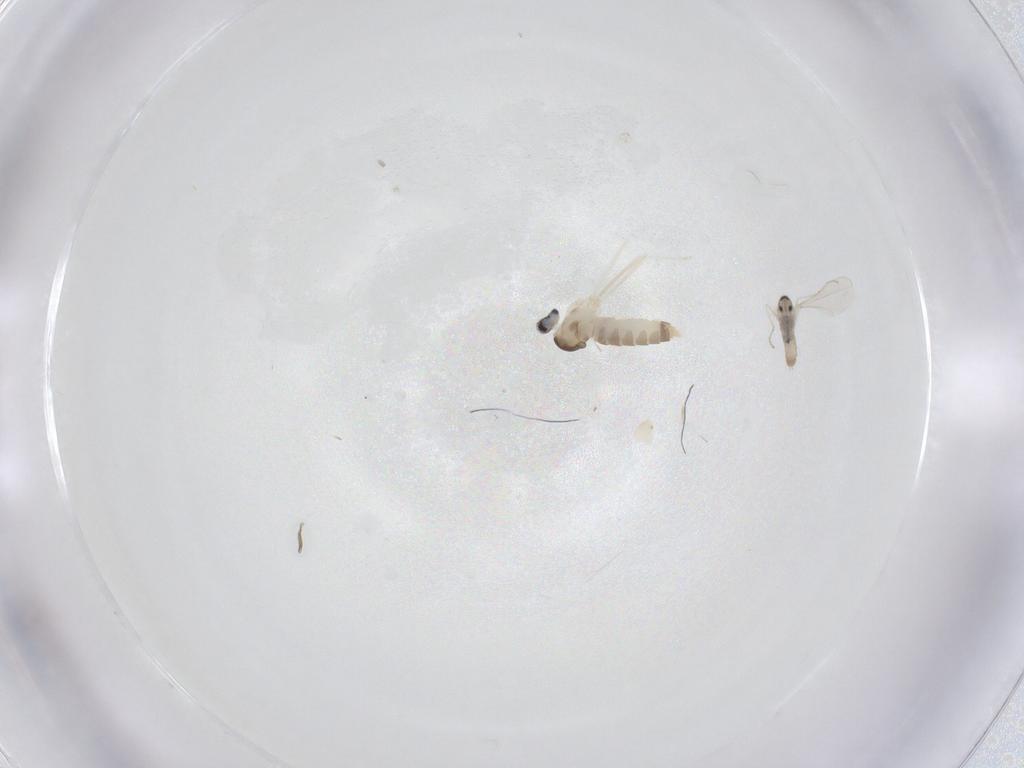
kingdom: Animalia
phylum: Arthropoda
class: Insecta
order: Diptera
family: Cecidomyiidae
